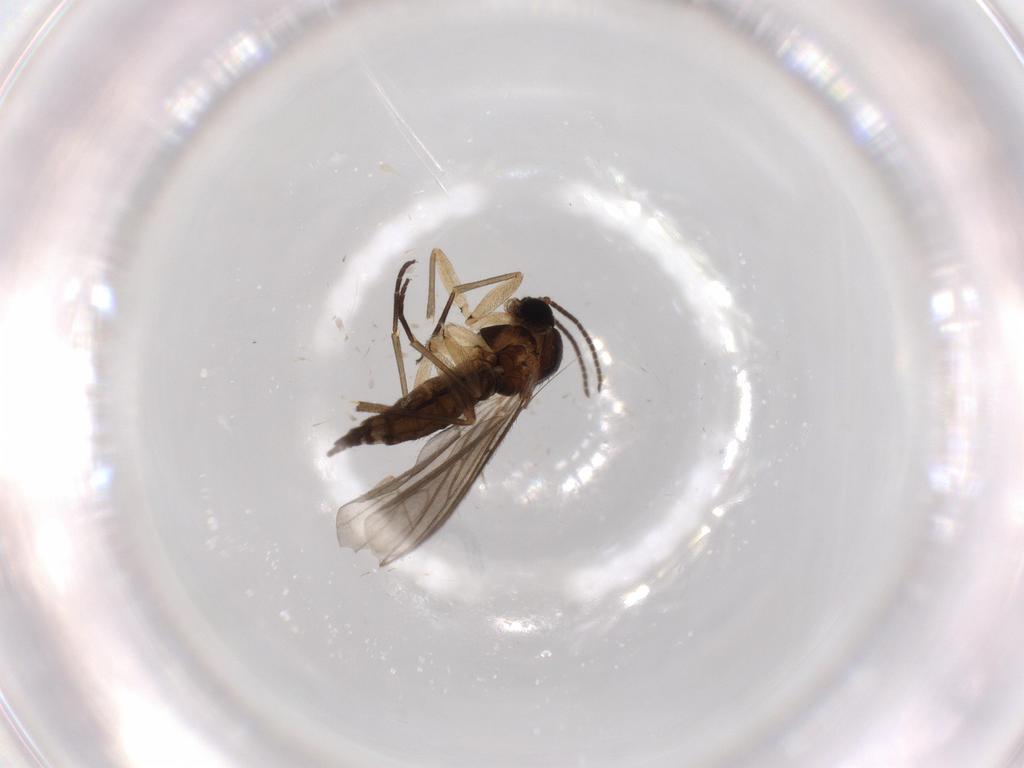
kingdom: Animalia
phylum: Arthropoda
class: Insecta
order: Diptera
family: Sciaridae
